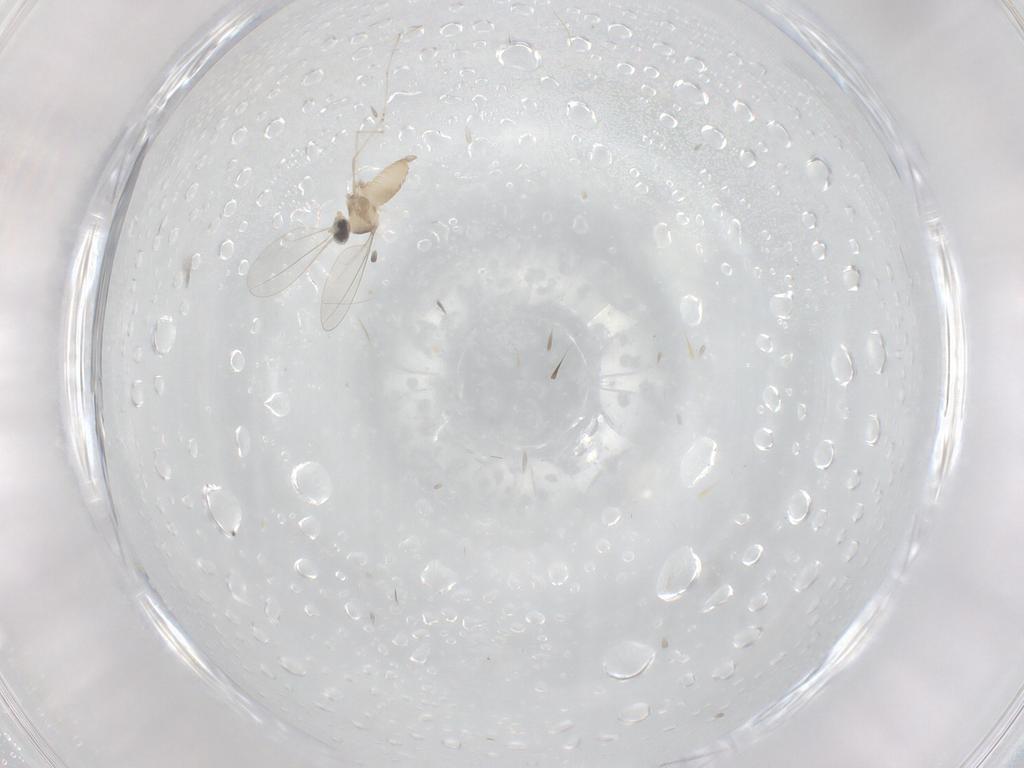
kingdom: Animalia
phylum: Arthropoda
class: Insecta
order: Diptera
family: Cecidomyiidae
